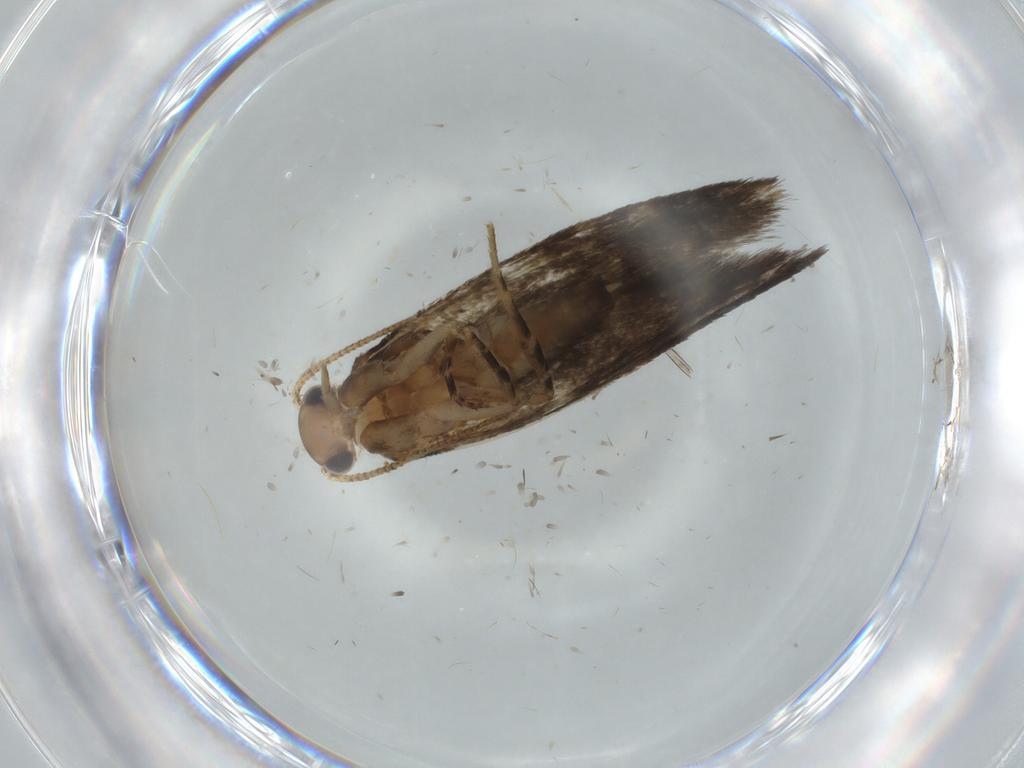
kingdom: Animalia
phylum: Arthropoda
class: Insecta
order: Lepidoptera
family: Tineidae
